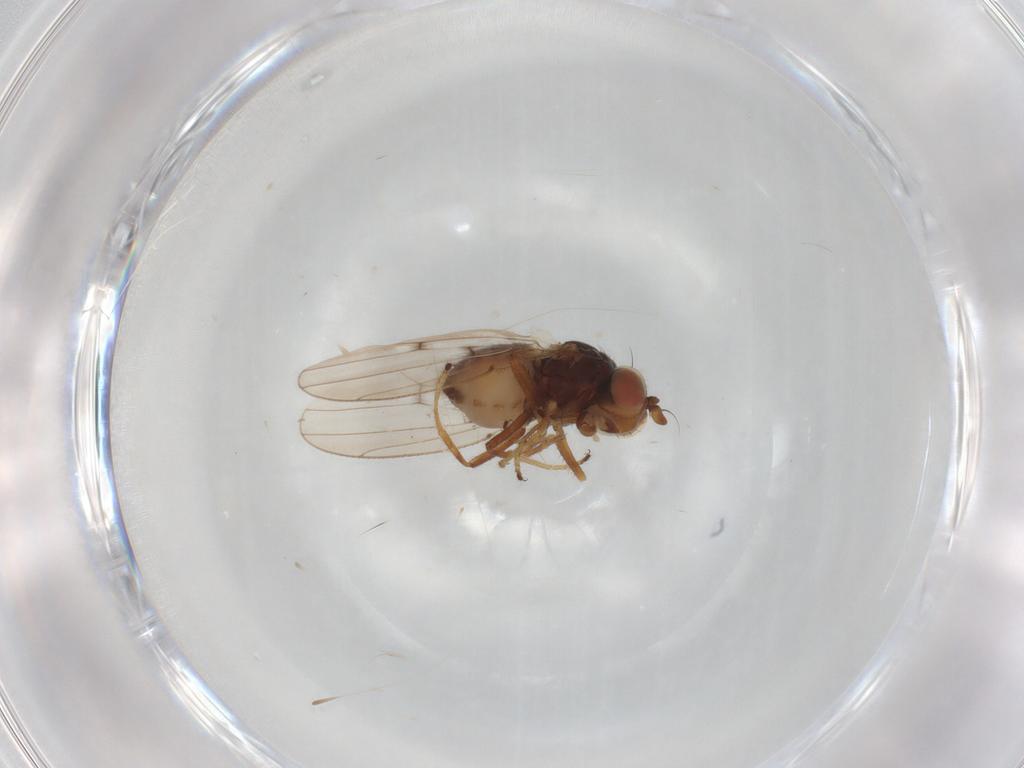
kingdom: Animalia
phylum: Arthropoda
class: Insecta
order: Diptera
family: Ephydridae
